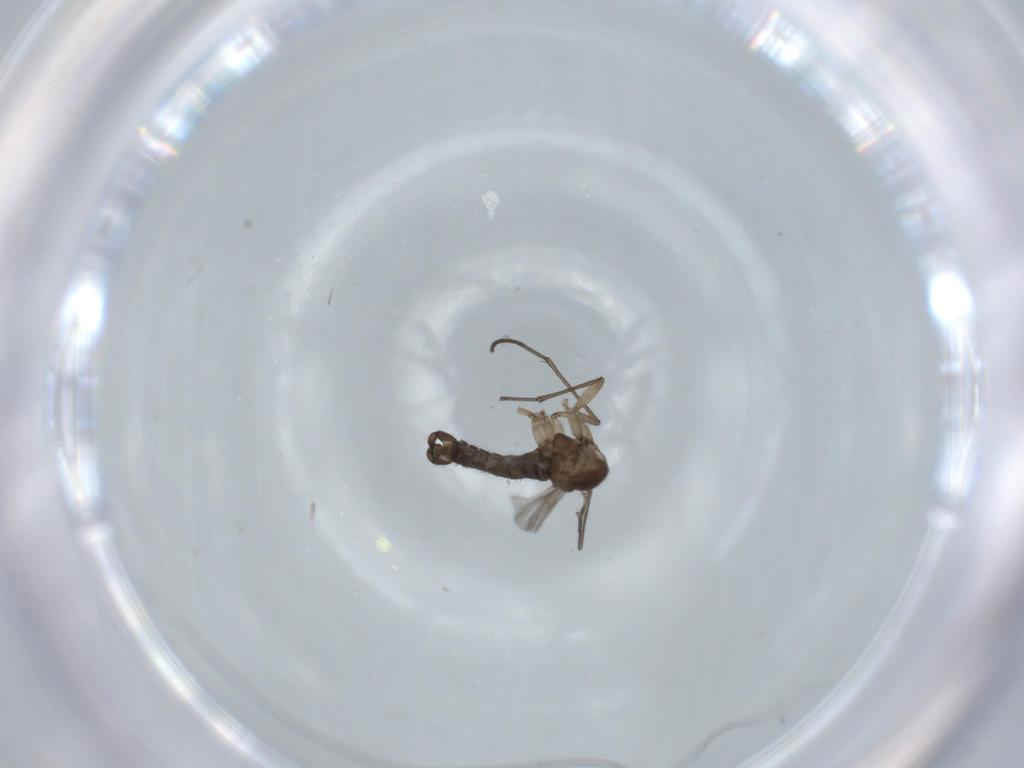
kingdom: Animalia
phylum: Arthropoda
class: Insecta
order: Diptera
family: Sciaridae
